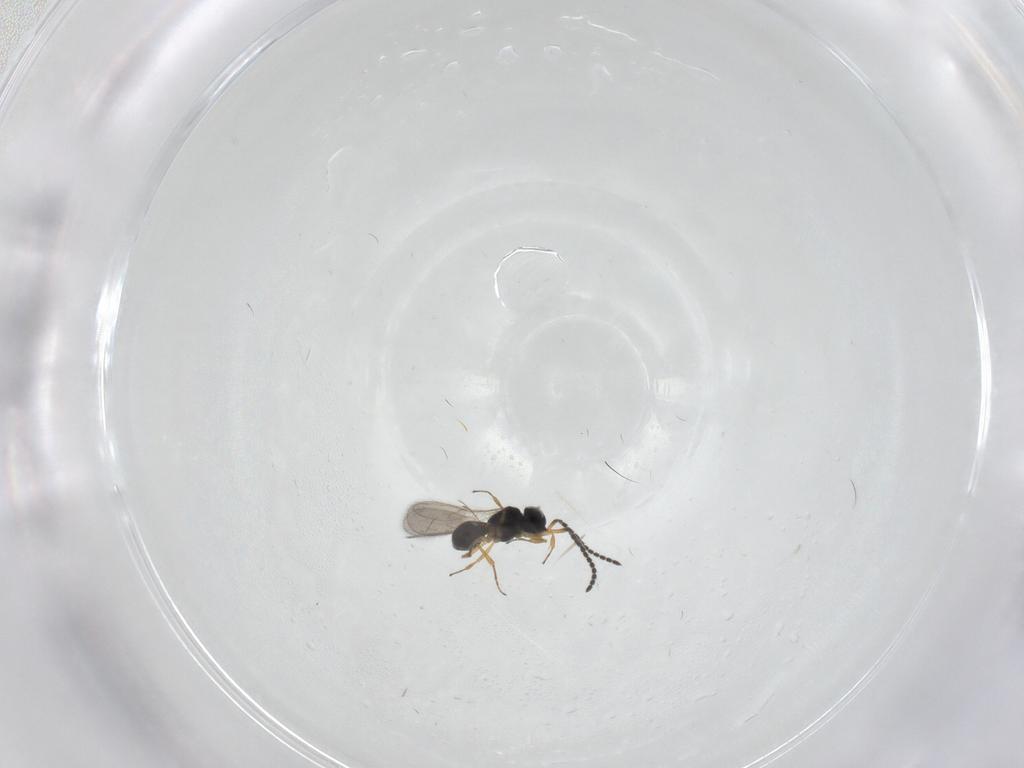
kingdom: Animalia
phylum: Arthropoda
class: Insecta
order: Hymenoptera
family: Scelionidae
